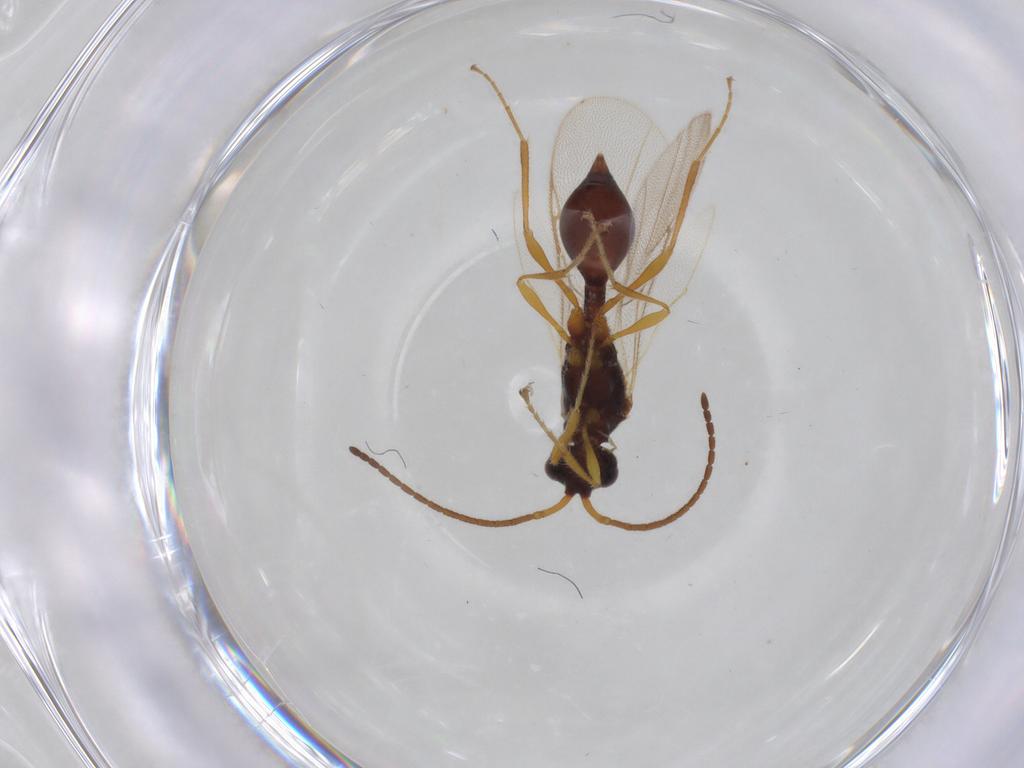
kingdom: Animalia
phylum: Arthropoda
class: Insecta
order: Hymenoptera
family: Diapriidae
